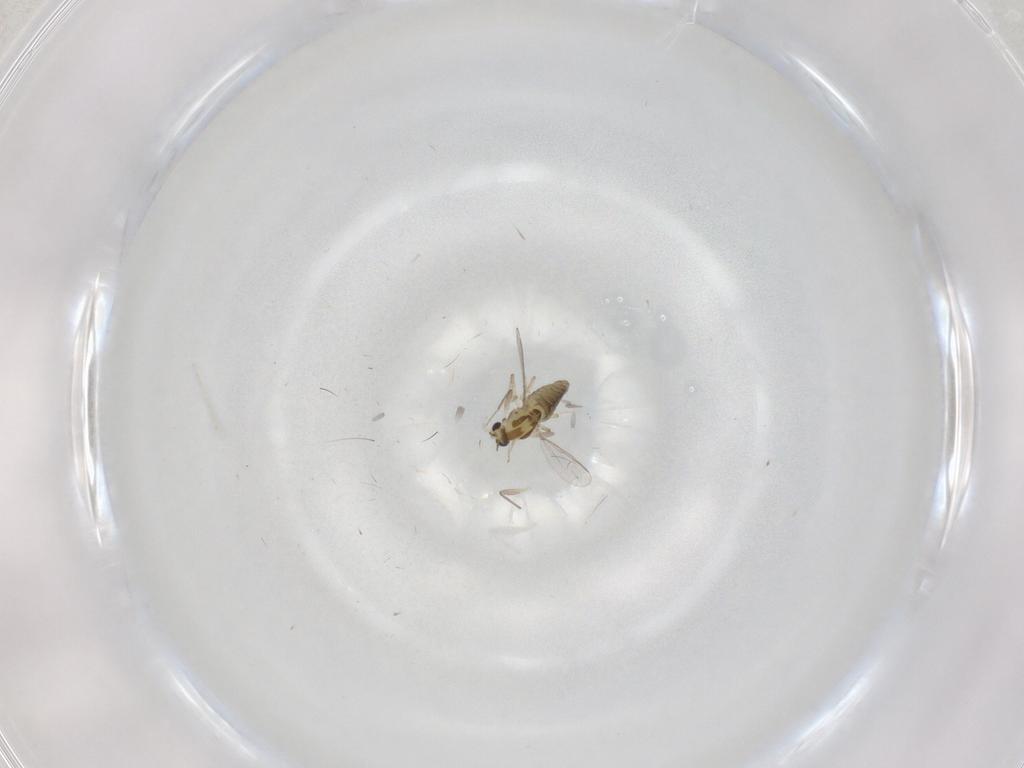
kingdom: Animalia
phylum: Arthropoda
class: Insecta
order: Diptera
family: Chironomidae
